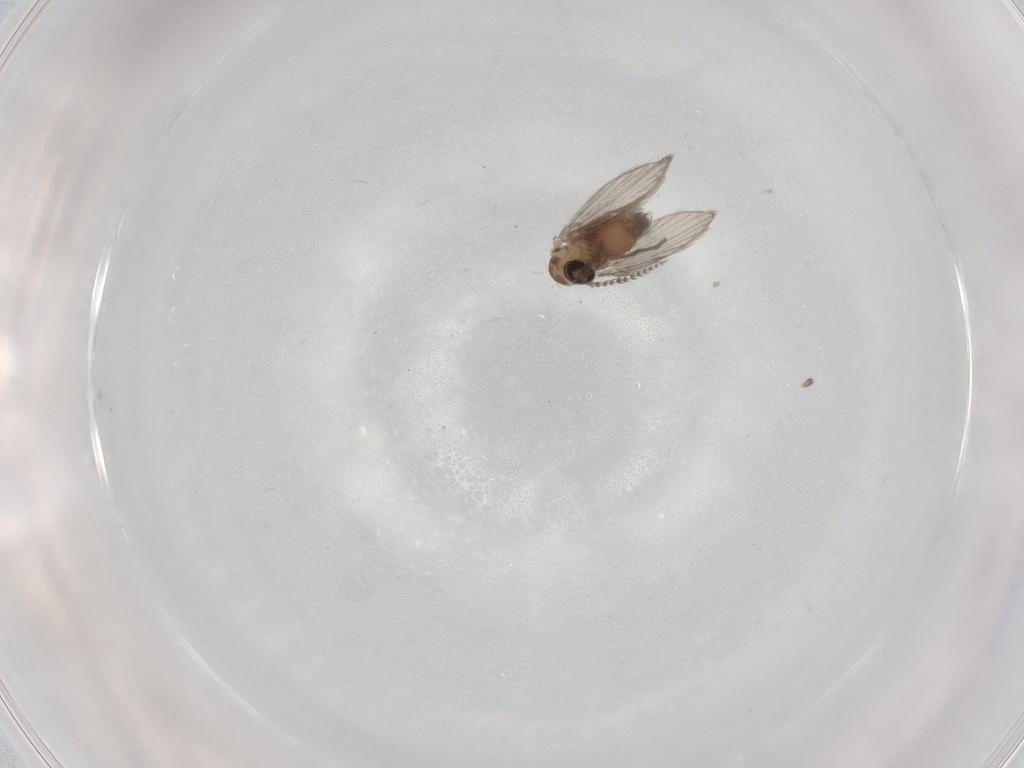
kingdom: Animalia
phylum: Arthropoda
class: Insecta
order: Diptera
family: Psychodidae
